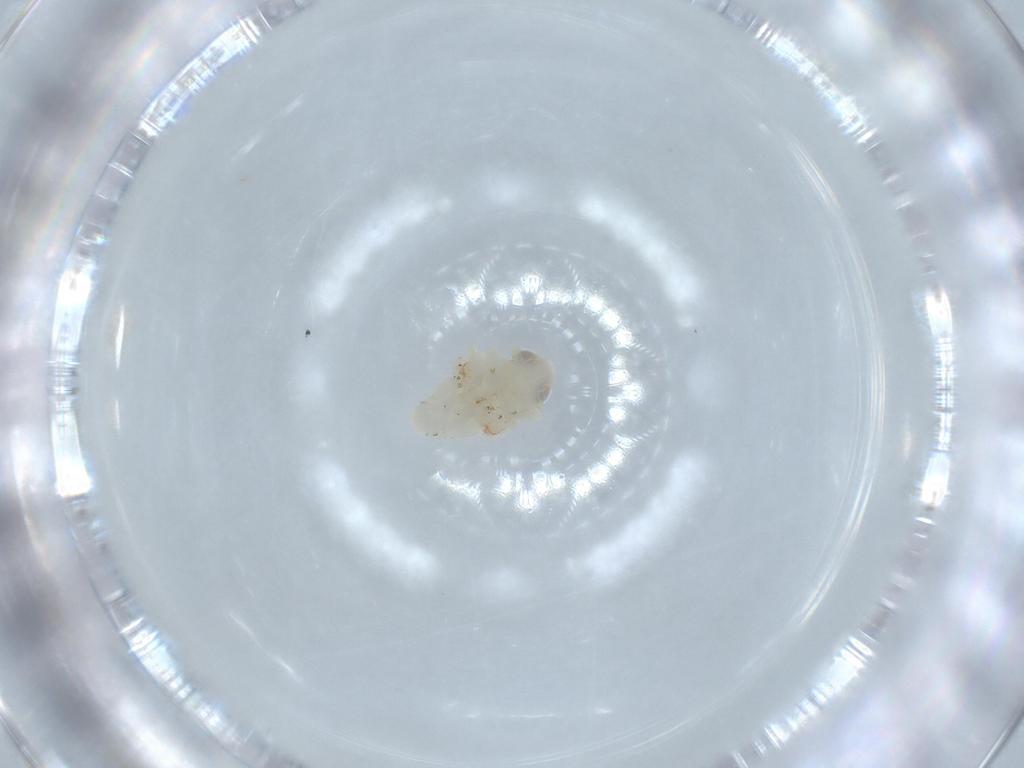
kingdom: Animalia
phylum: Arthropoda
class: Insecta
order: Hemiptera
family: Nogodinidae
